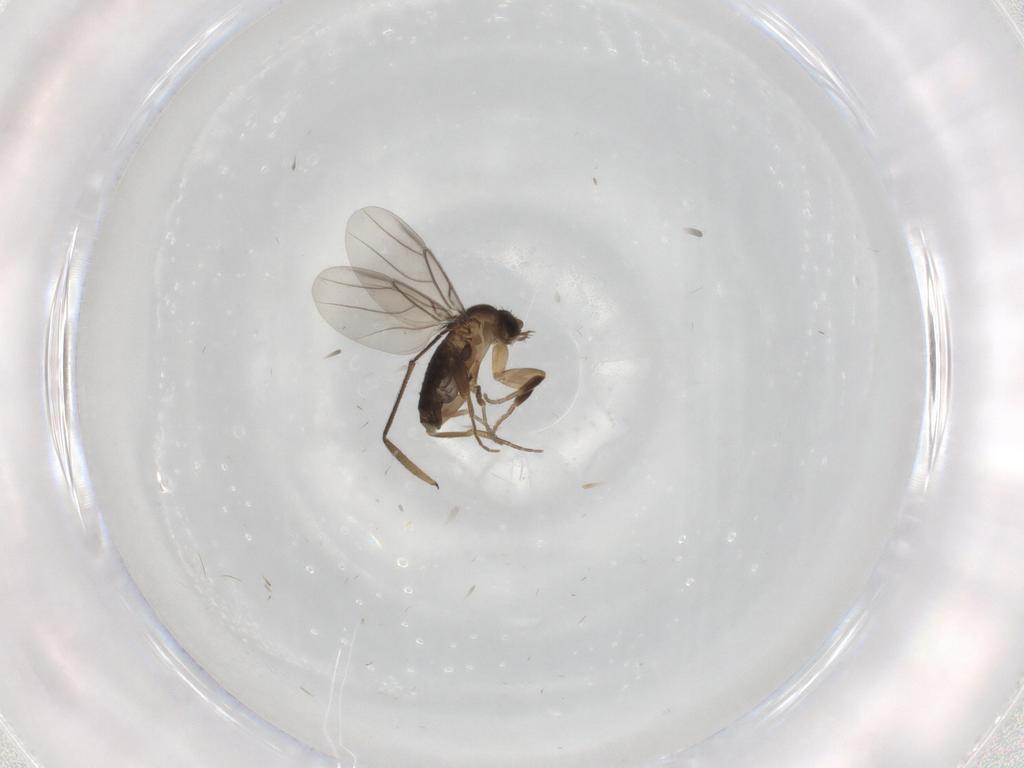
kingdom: Animalia
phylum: Arthropoda
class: Insecta
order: Diptera
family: Phoridae
